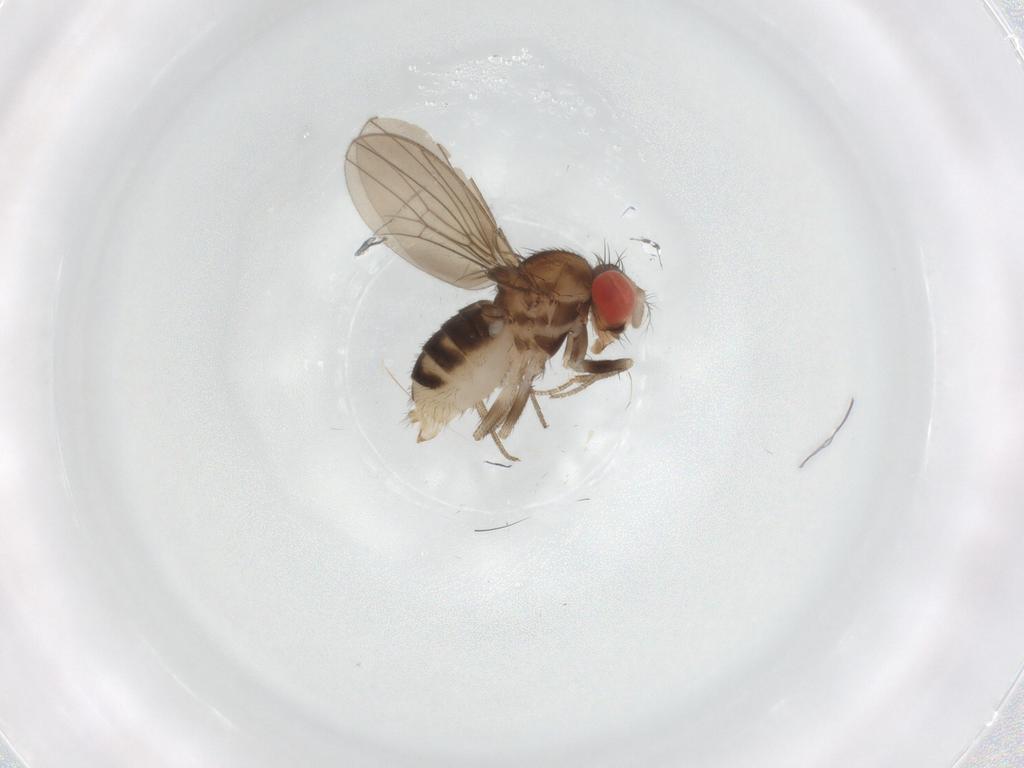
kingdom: Animalia
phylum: Arthropoda
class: Insecta
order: Diptera
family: Drosophilidae
